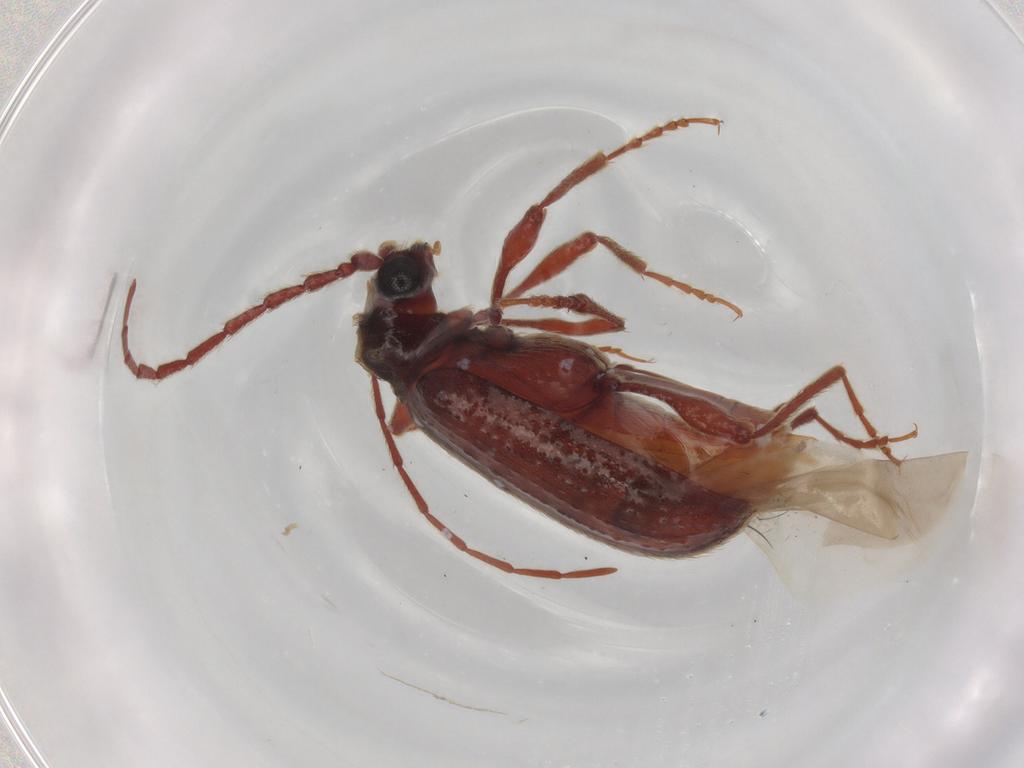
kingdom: Animalia
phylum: Arthropoda
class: Insecta
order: Coleoptera
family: Ptinidae
